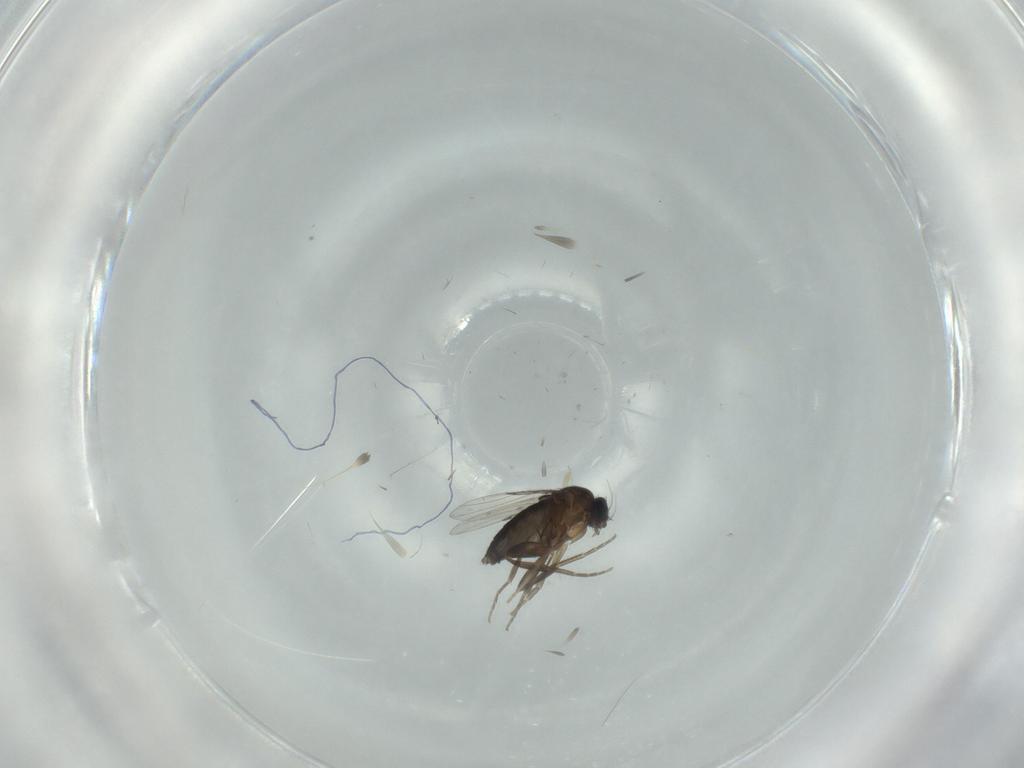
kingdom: Animalia
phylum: Arthropoda
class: Insecta
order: Diptera
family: Phoridae
